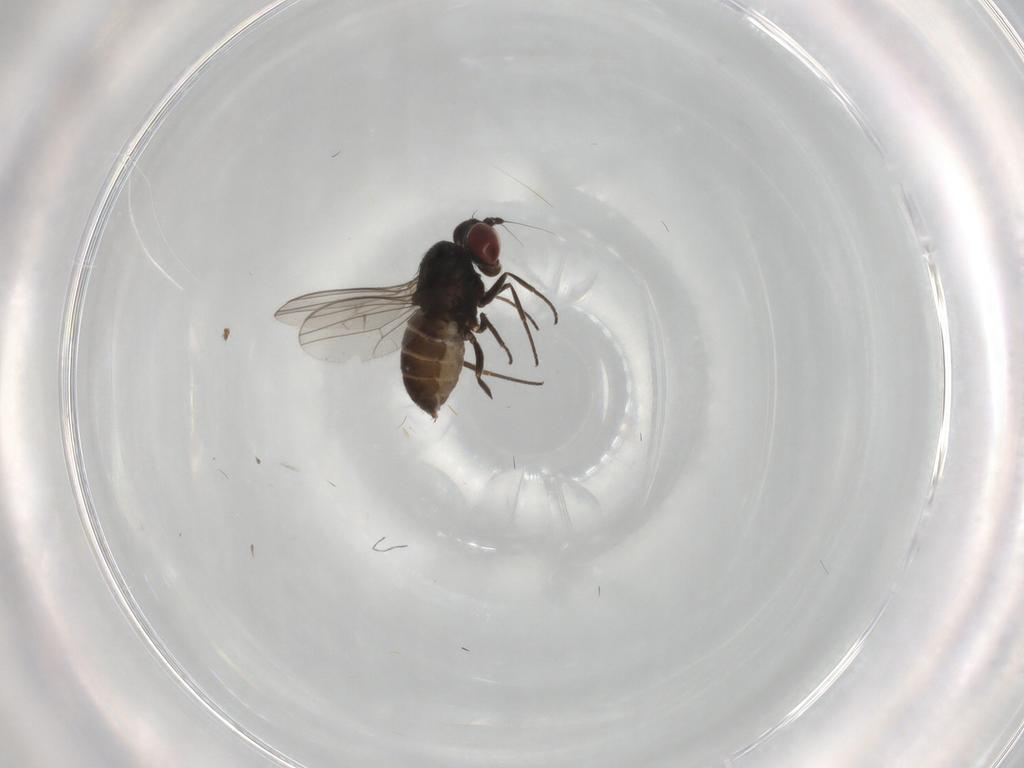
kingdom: Animalia
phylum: Arthropoda
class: Insecta
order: Diptera
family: Dolichopodidae
